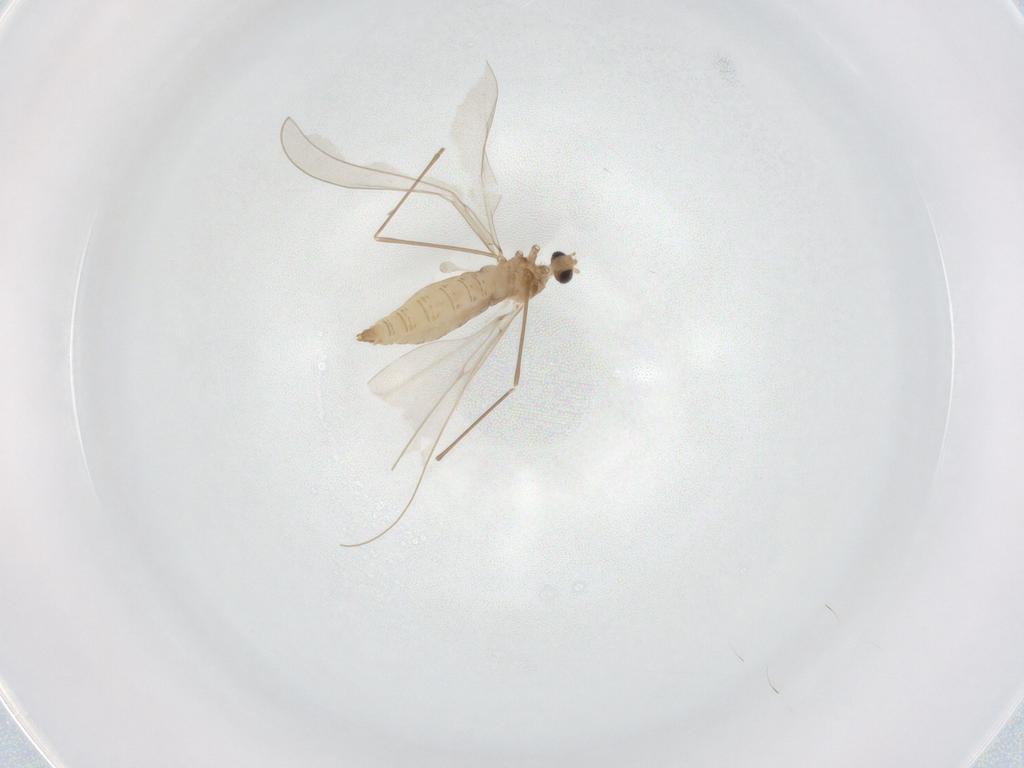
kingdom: Animalia
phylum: Arthropoda
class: Insecta
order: Diptera
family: Cecidomyiidae
